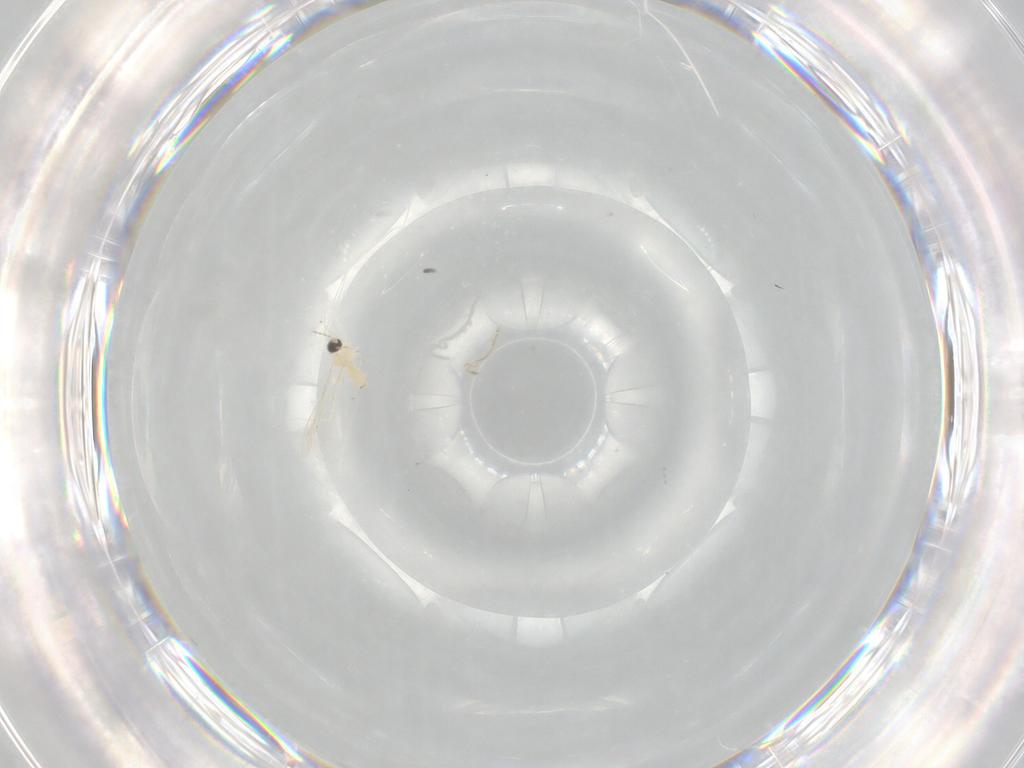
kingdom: Animalia
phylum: Arthropoda
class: Insecta
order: Diptera
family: Cecidomyiidae
